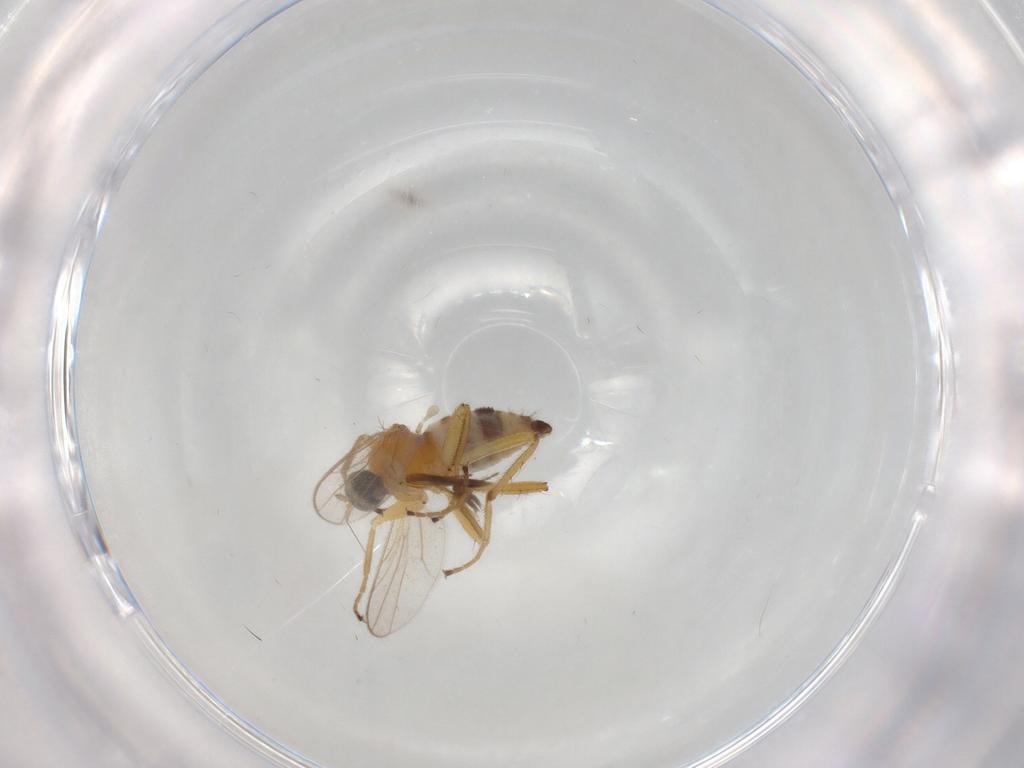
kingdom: Animalia
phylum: Arthropoda
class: Insecta
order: Diptera
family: Hybotidae
